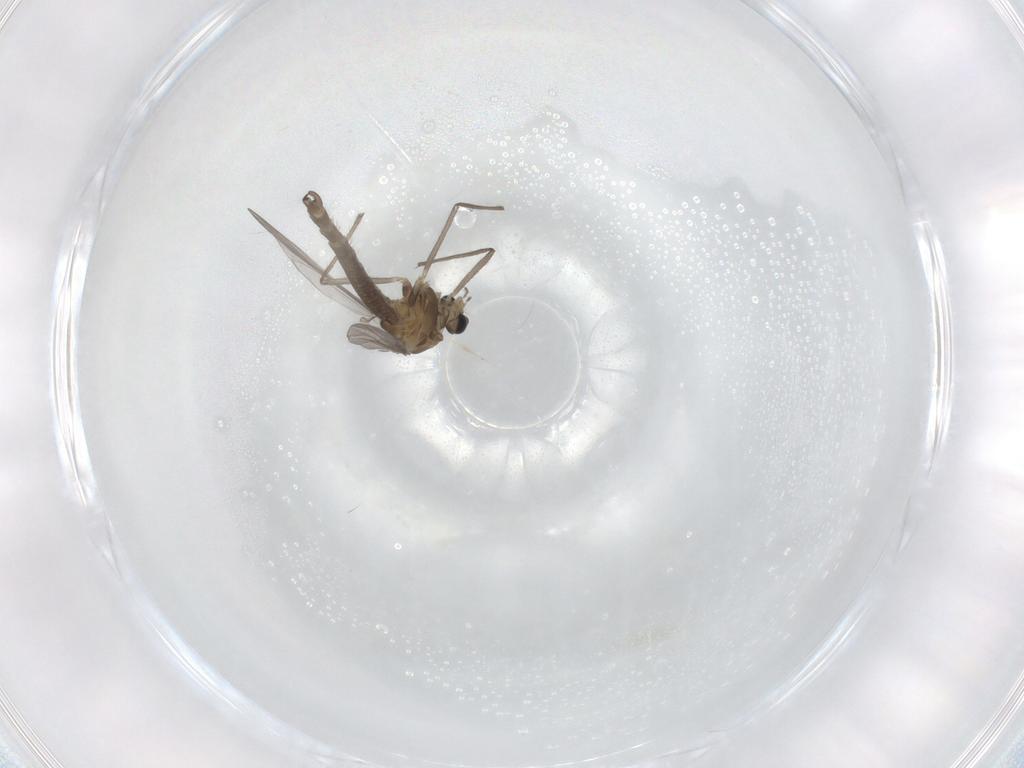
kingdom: Animalia
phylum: Arthropoda
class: Insecta
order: Diptera
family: Chironomidae
